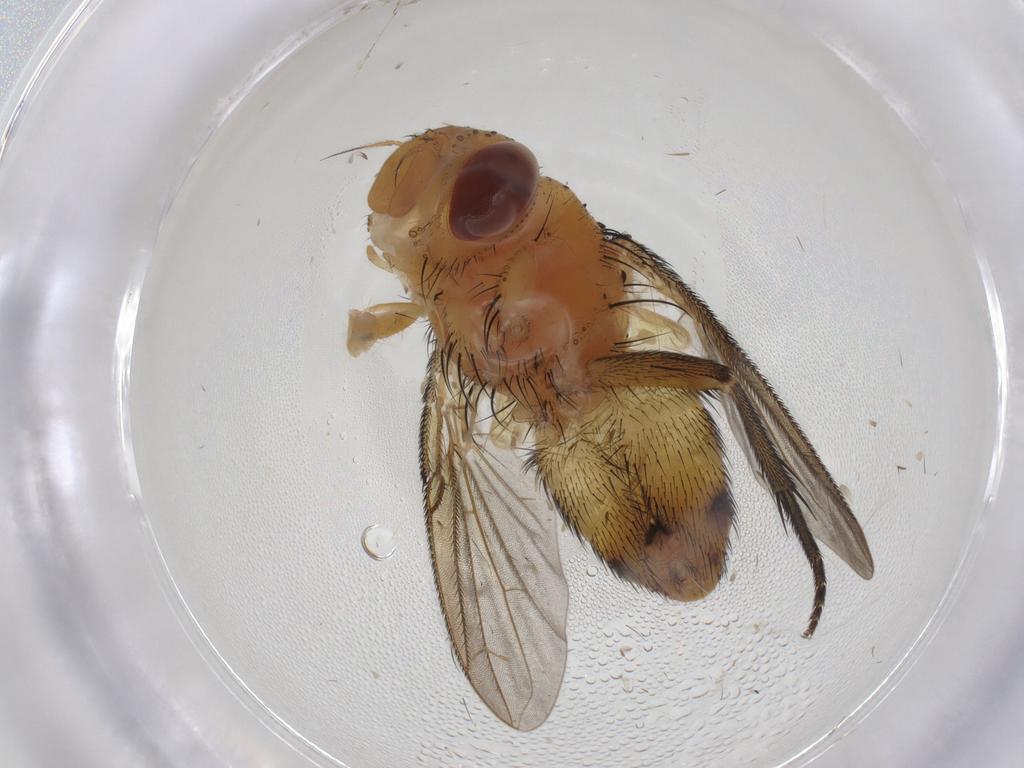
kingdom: Animalia
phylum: Arthropoda
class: Insecta
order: Diptera
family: Tachinidae
